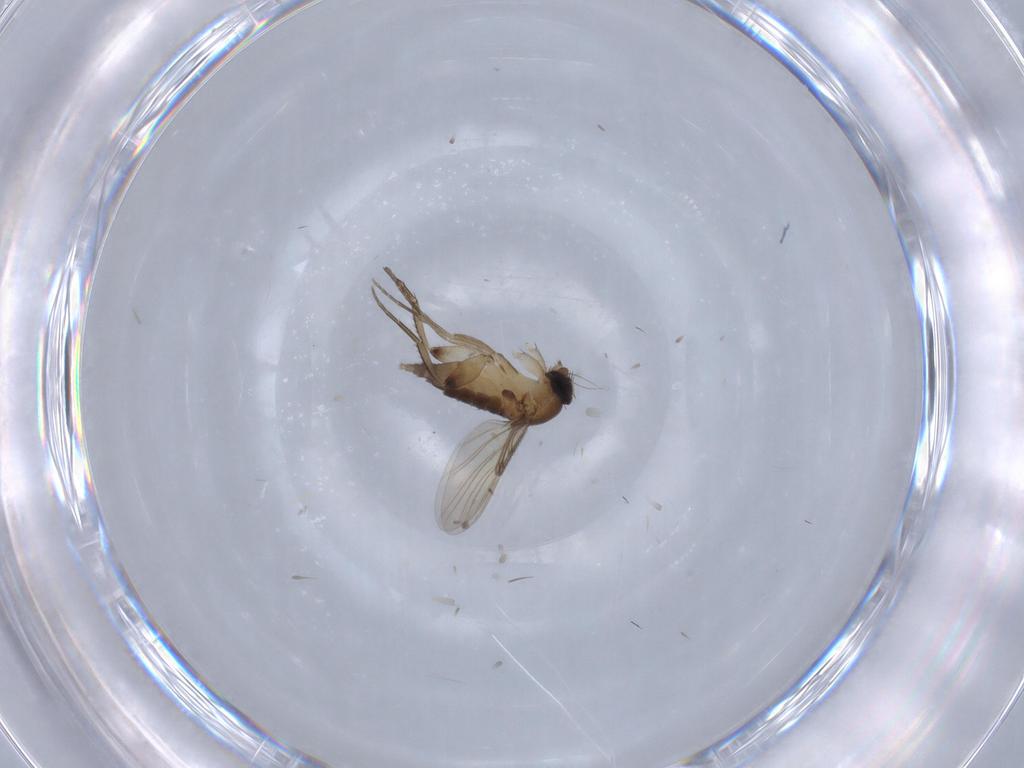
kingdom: Animalia
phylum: Arthropoda
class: Insecta
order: Diptera
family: Phoridae
